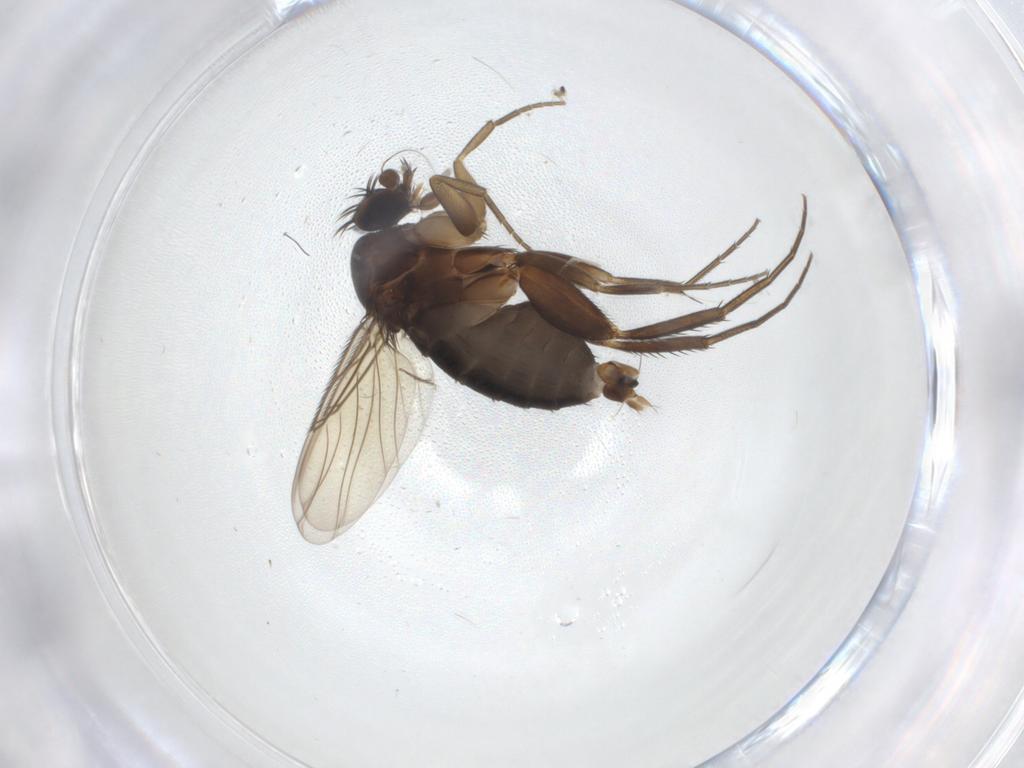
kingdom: Animalia
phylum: Arthropoda
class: Insecta
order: Diptera
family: Phoridae
